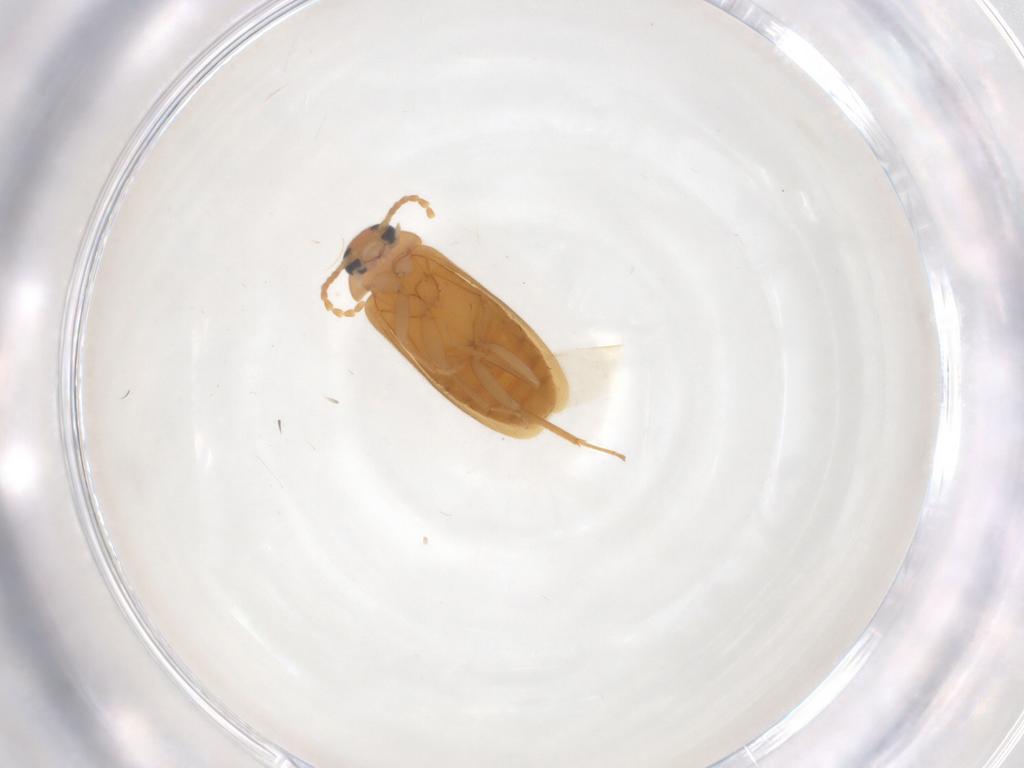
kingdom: Animalia
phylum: Arthropoda
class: Insecta
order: Coleoptera
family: Scraptiidae
